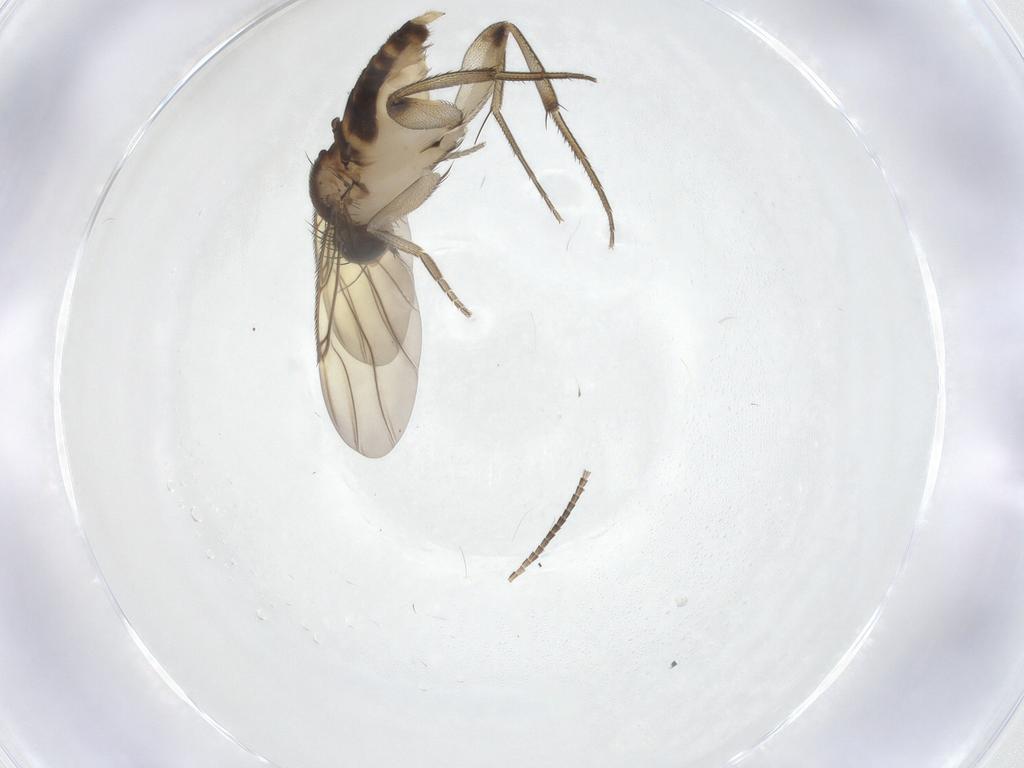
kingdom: Animalia
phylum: Arthropoda
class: Insecta
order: Diptera
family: Phoridae
